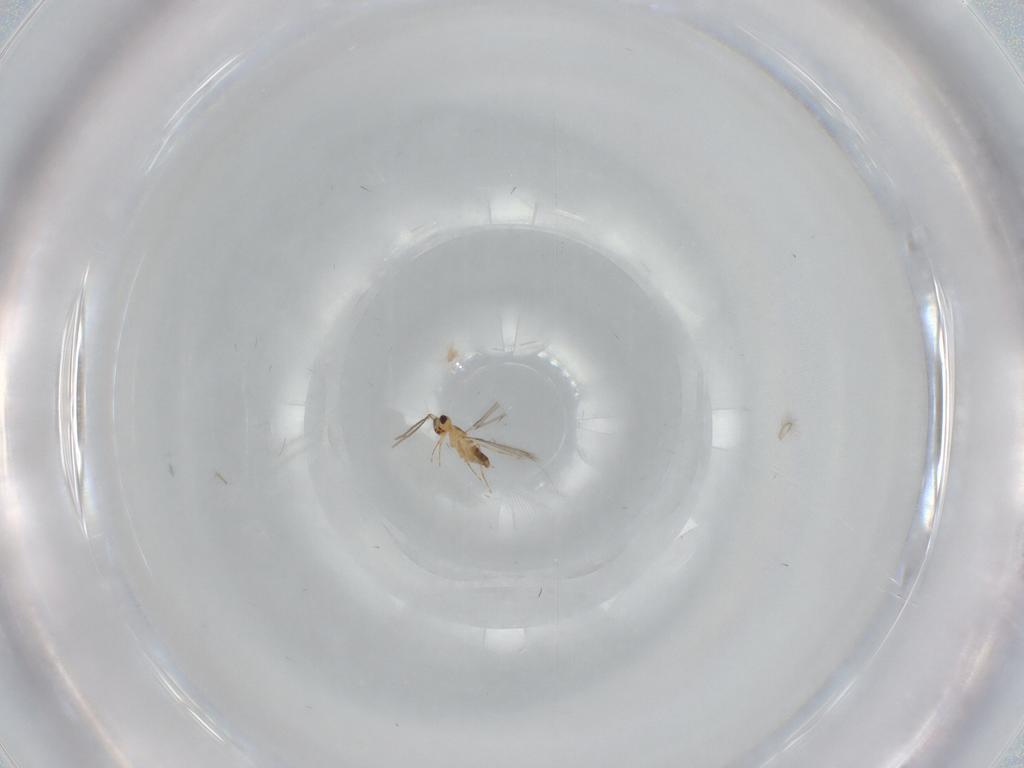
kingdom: Animalia
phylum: Arthropoda
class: Insecta
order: Hymenoptera
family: Mymaridae
